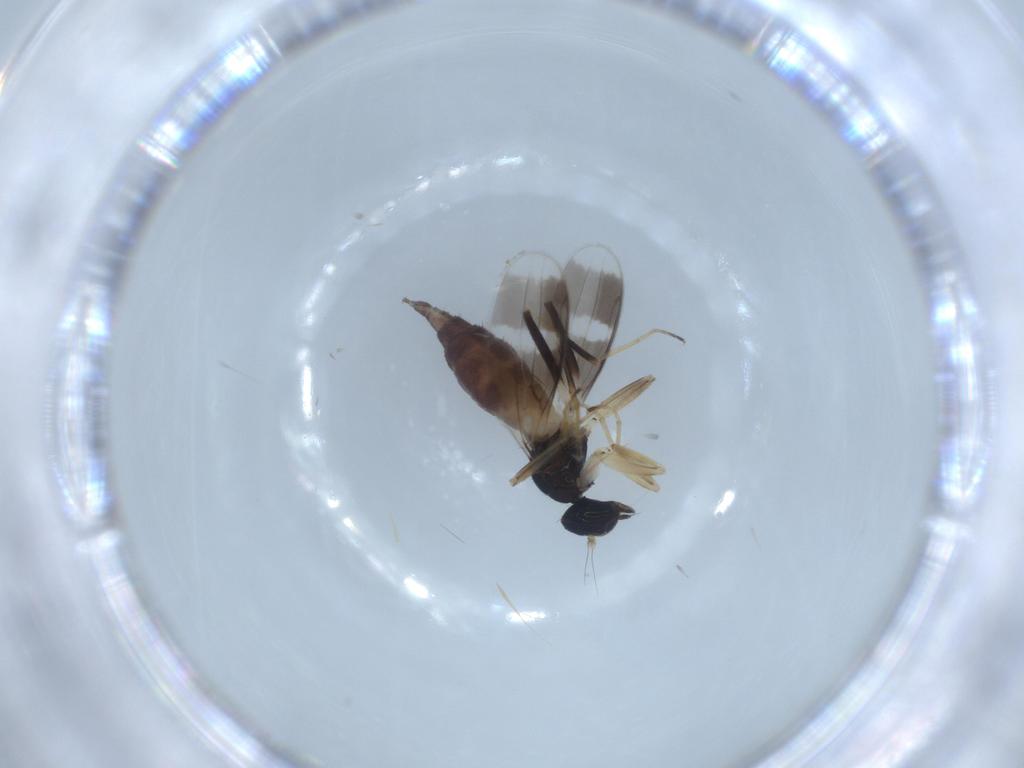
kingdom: Animalia
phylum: Arthropoda
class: Insecta
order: Diptera
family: Hybotidae
